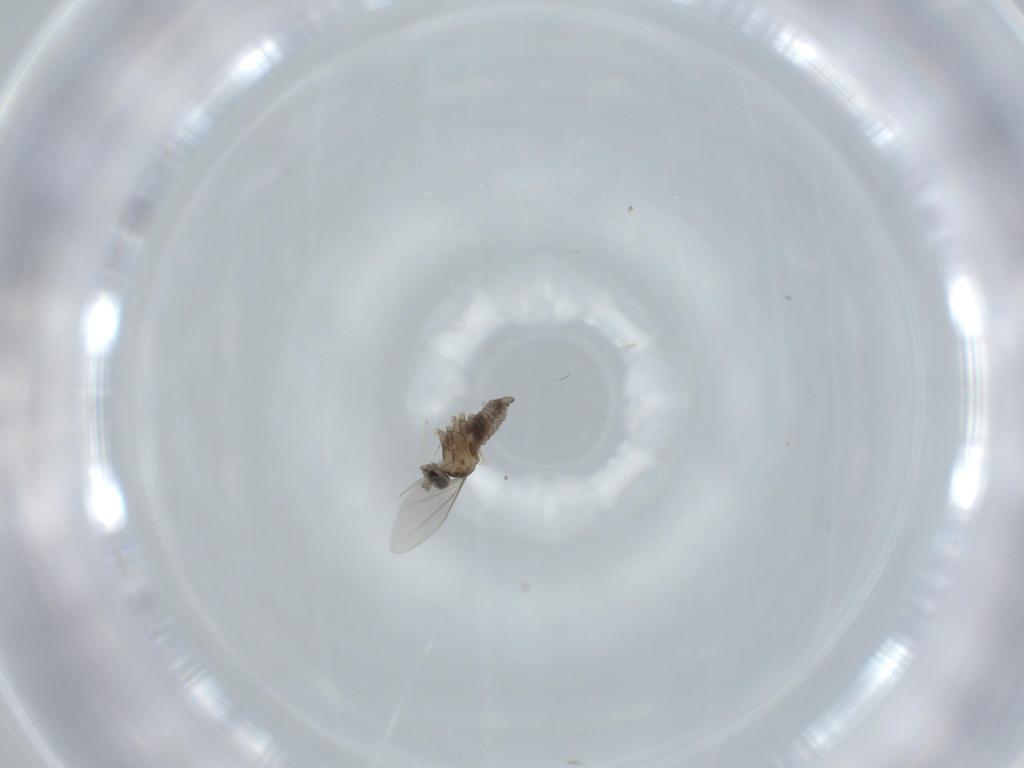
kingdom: Animalia
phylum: Arthropoda
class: Insecta
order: Diptera
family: Cecidomyiidae
